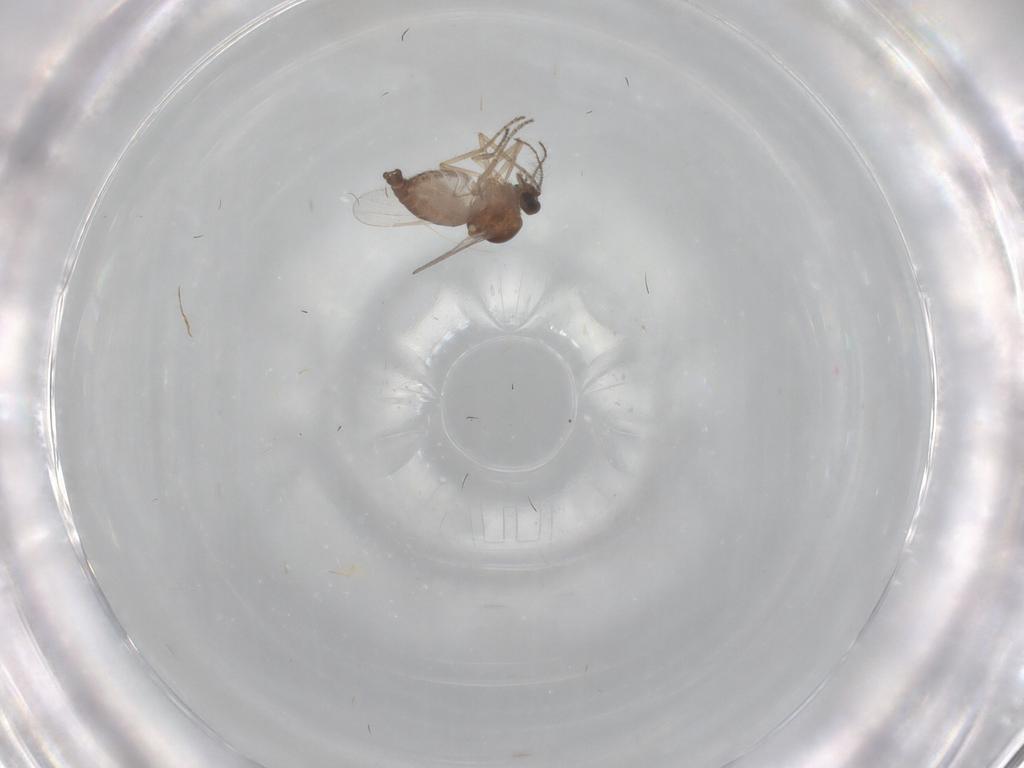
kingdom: Animalia
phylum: Arthropoda
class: Insecta
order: Diptera
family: Ceratopogonidae
